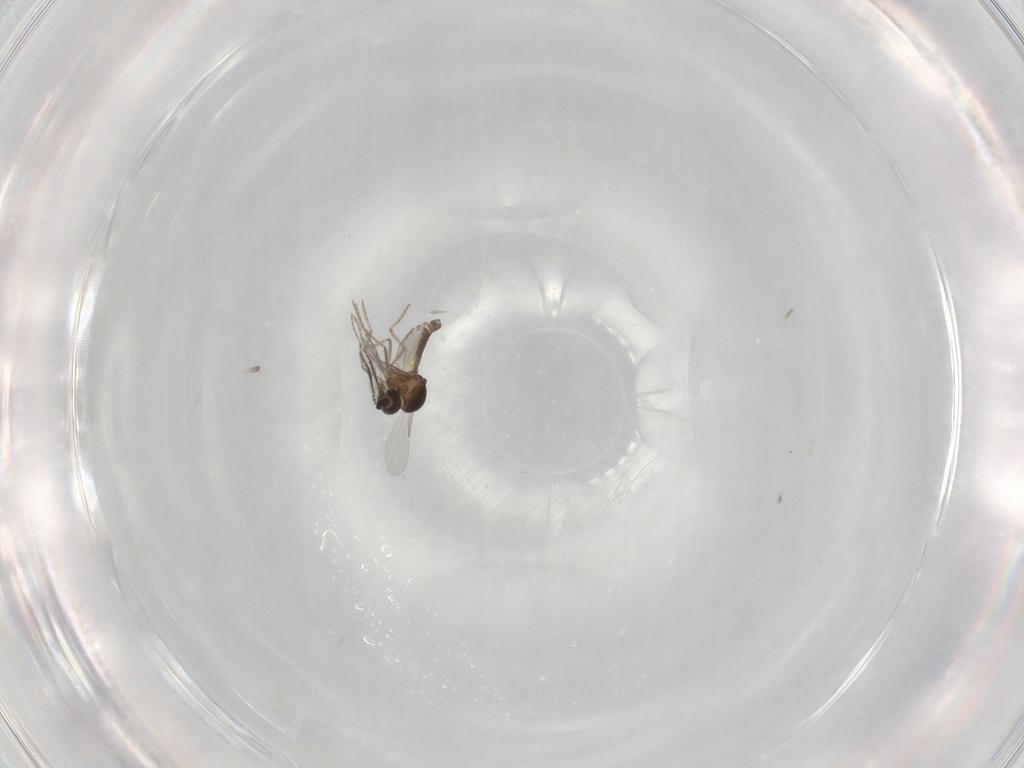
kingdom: Animalia
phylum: Arthropoda
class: Insecta
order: Diptera
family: Ceratopogonidae
